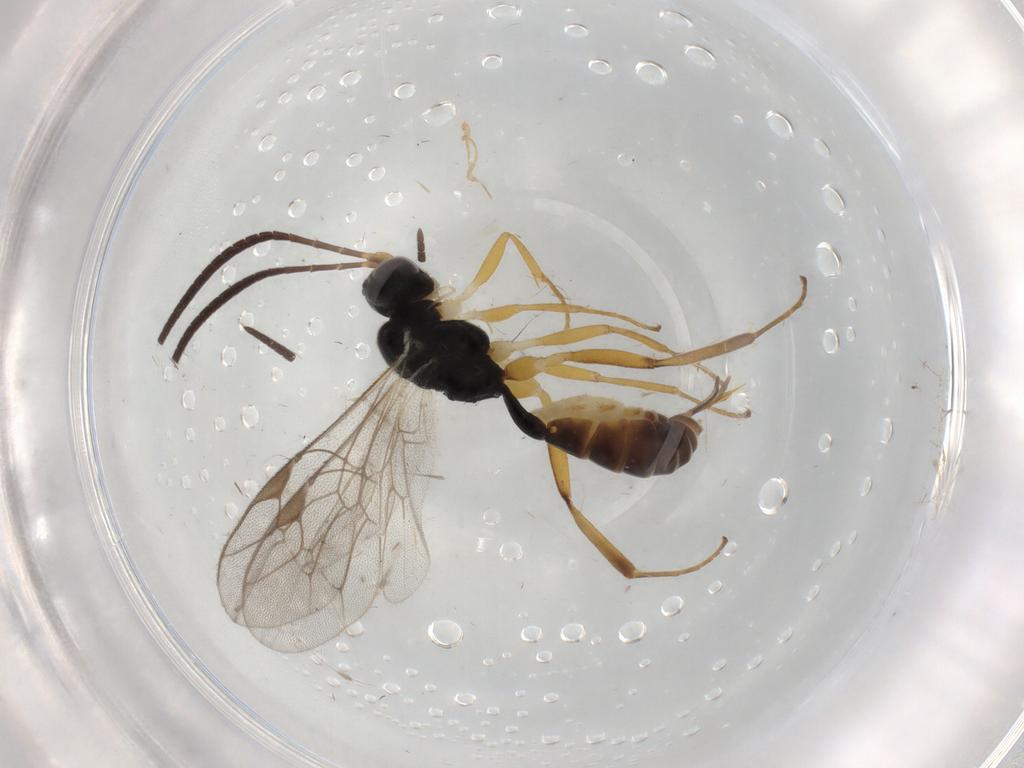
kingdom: Animalia
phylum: Arthropoda
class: Insecta
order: Hymenoptera
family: Ichneumonidae
